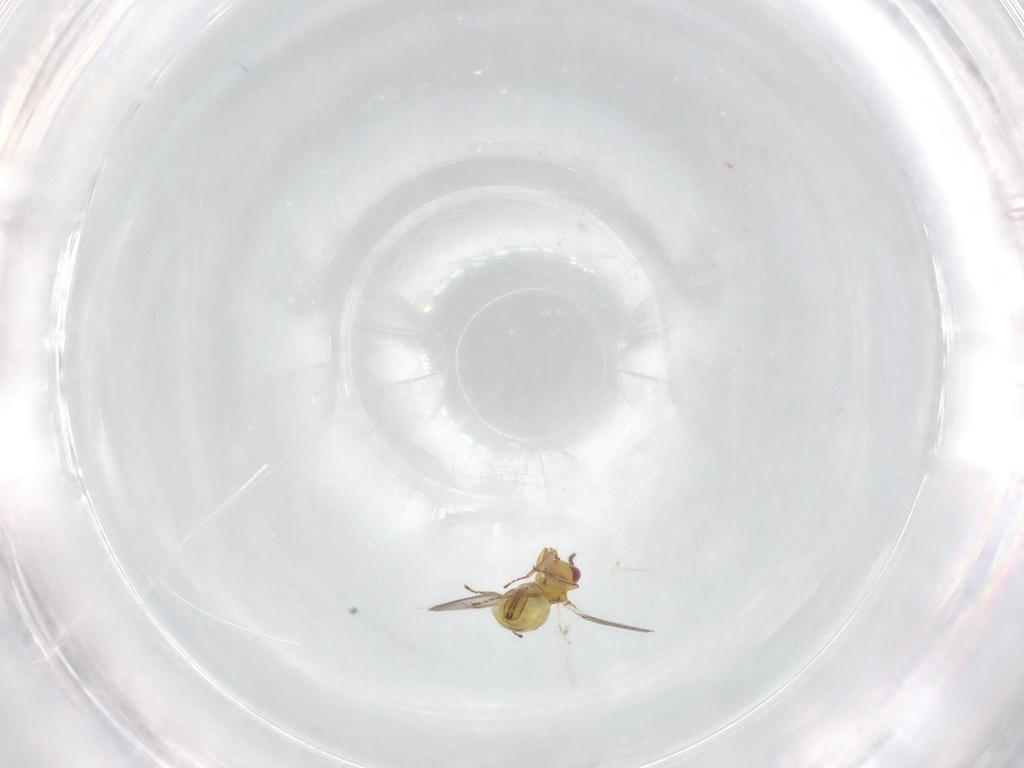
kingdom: Animalia
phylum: Arthropoda
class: Insecta
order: Hymenoptera
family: Eulophidae
